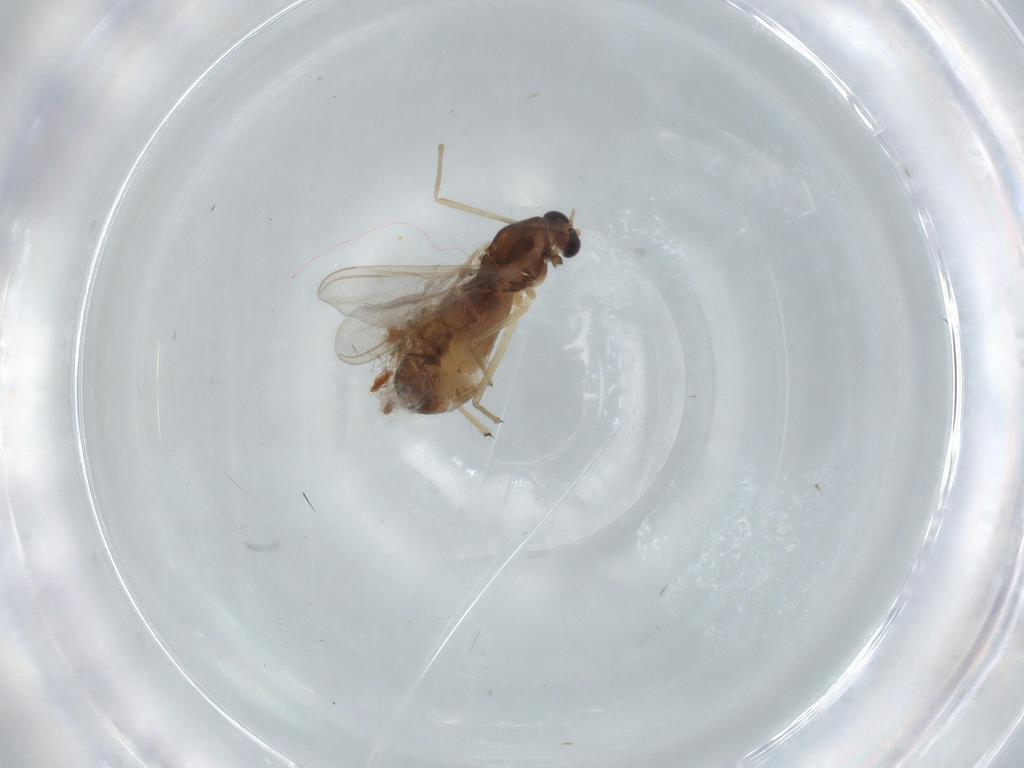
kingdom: Animalia
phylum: Arthropoda
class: Insecta
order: Diptera
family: Chironomidae
